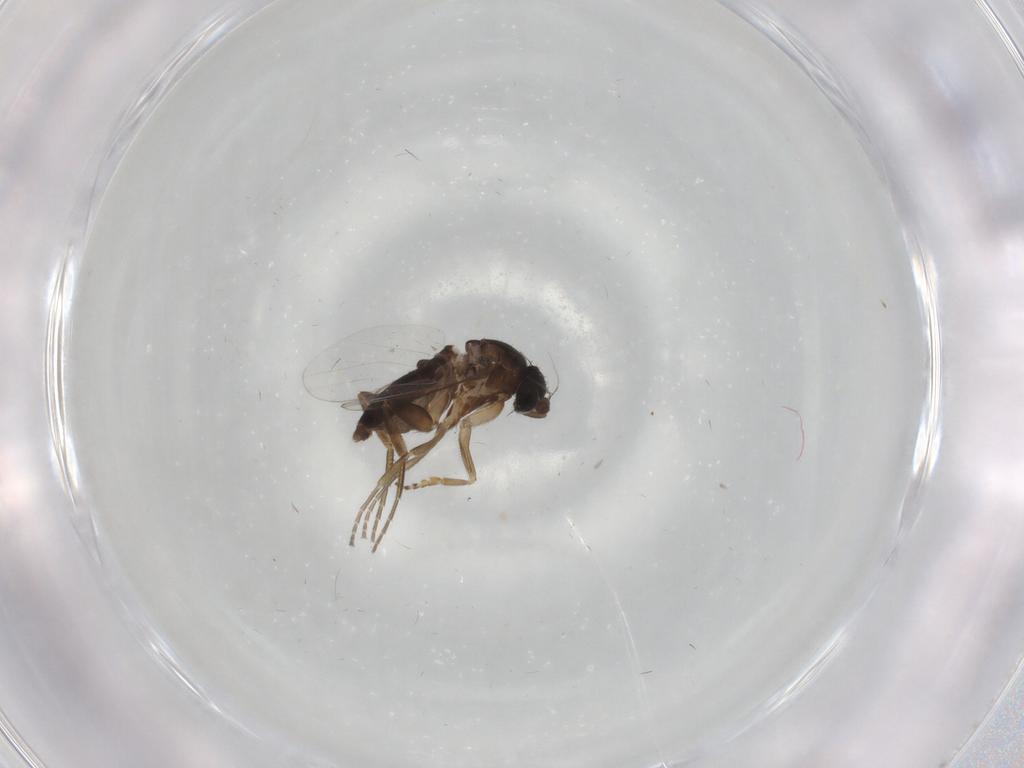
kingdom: Animalia
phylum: Arthropoda
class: Insecta
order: Diptera
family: Phoridae
